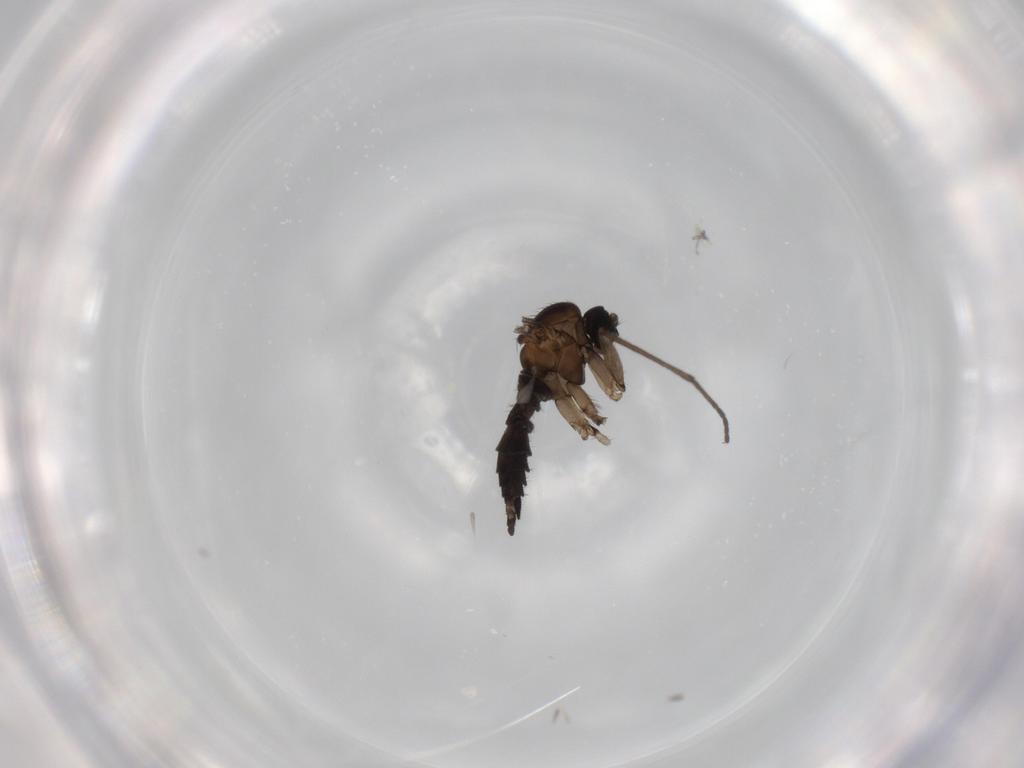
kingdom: Animalia
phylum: Arthropoda
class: Insecta
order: Diptera
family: Sciaridae
